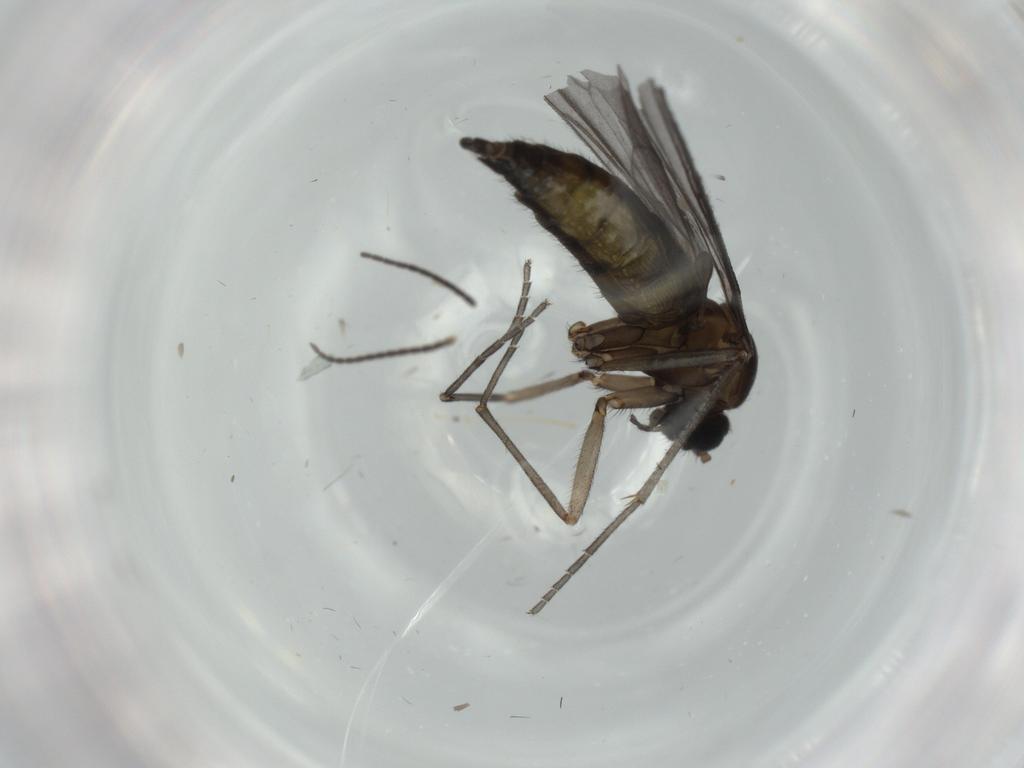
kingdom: Animalia
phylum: Arthropoda
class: Insecta
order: Diptera
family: Sciaridae
